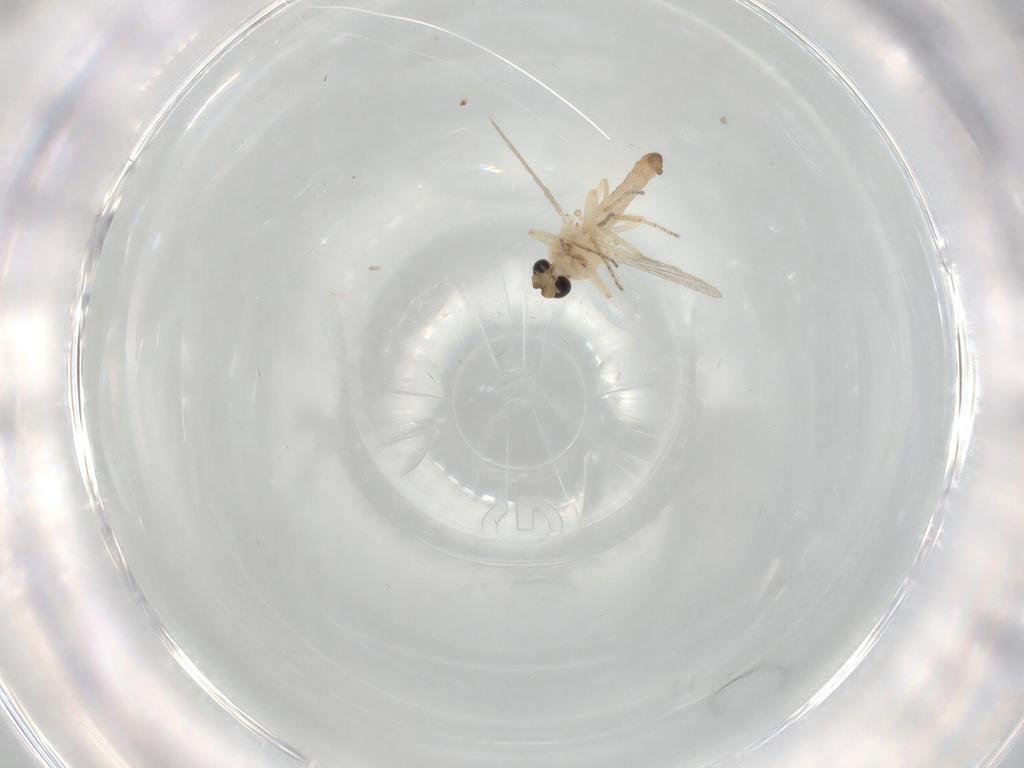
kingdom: Animalia
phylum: Arthropoda
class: Insecta
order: Diptera
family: Ceratopogonidae
